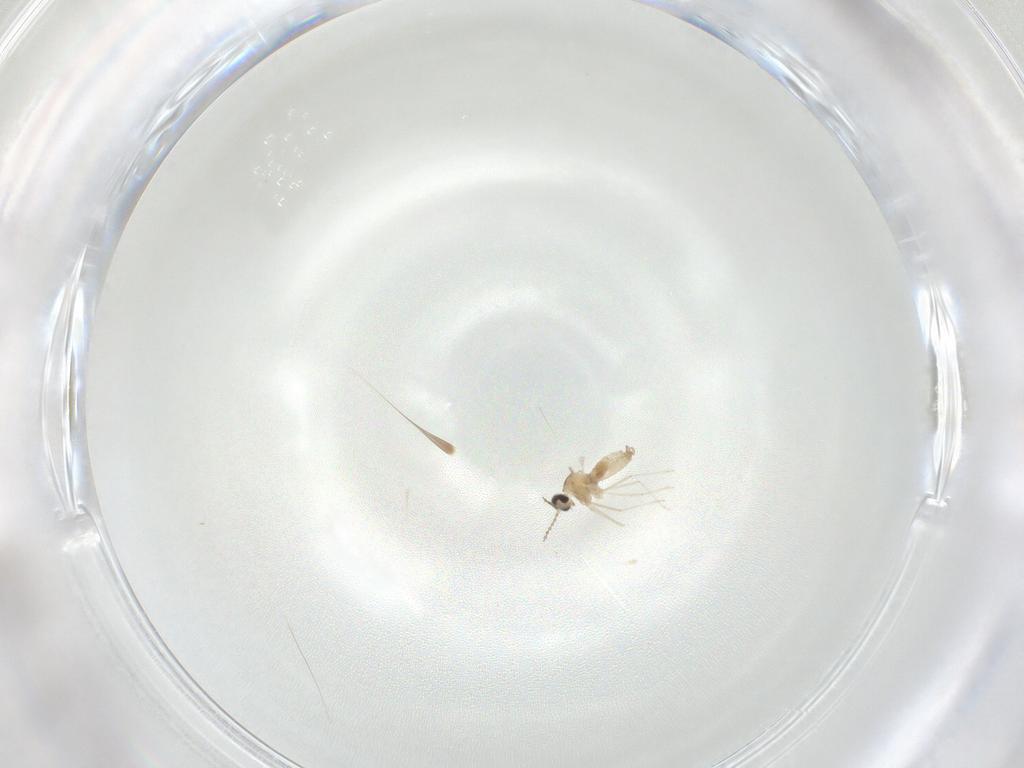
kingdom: Animalia
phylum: Arthropoda
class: Insecta
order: Diptera
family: Cecidomyiidae
